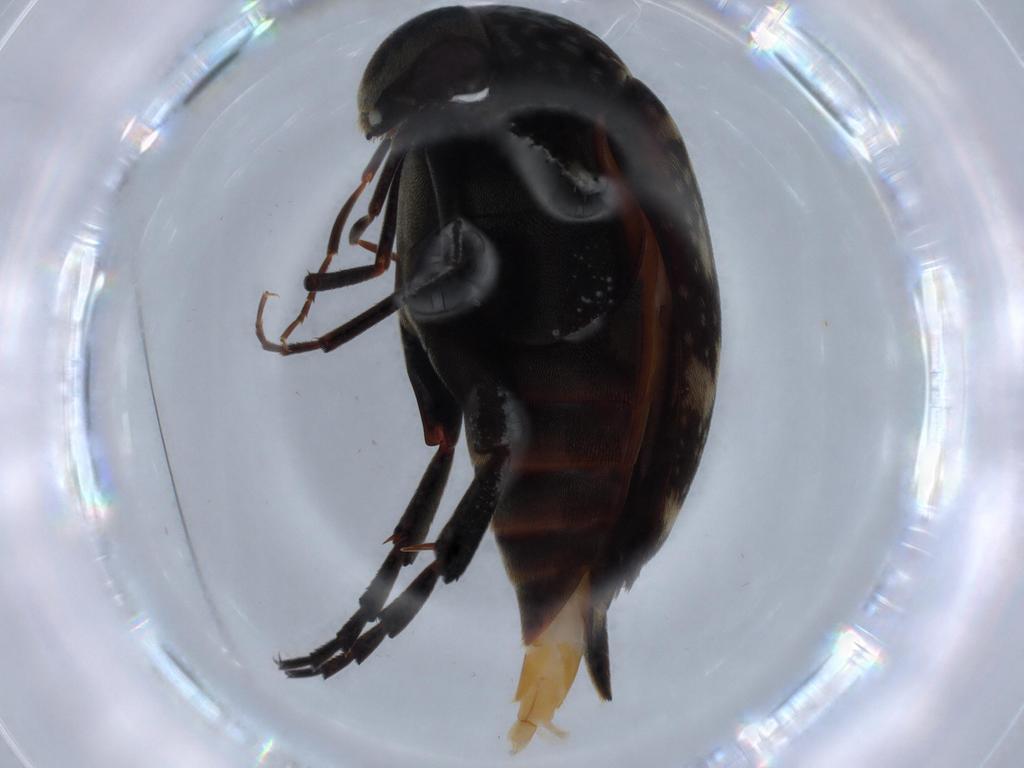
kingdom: Animalia
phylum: Arthropoda
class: Insecta
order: Coleoptera
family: Mordellidae
